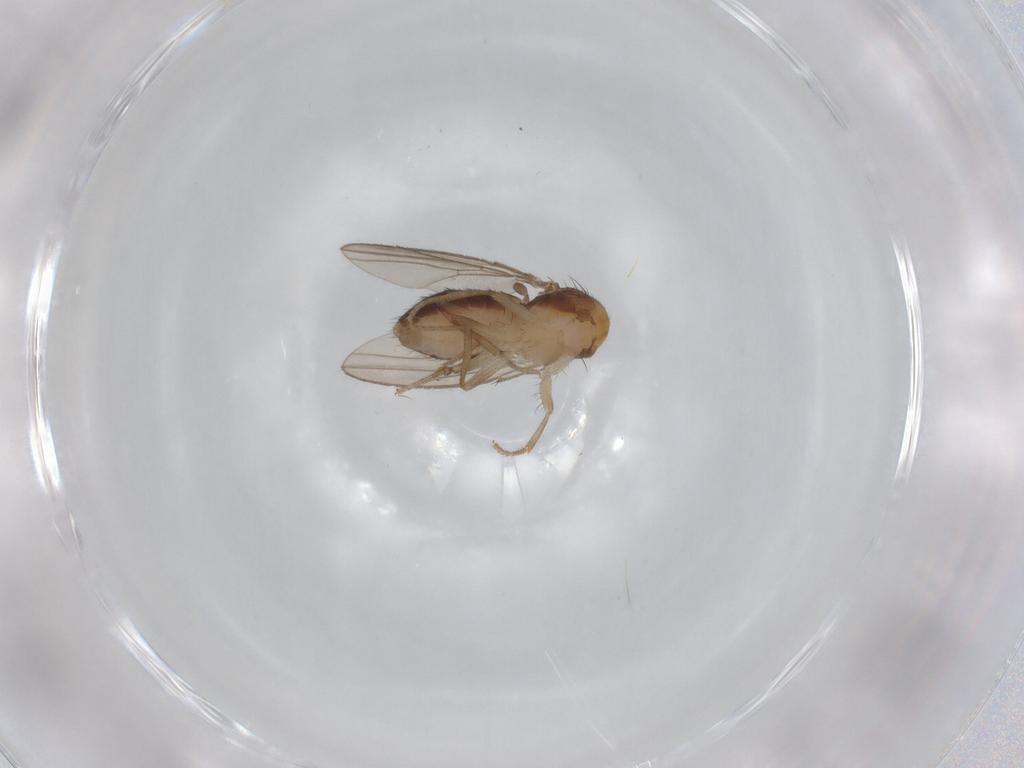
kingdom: Animalia
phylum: Arthropoda
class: Insecta
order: Diptera
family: Drosophilidae
